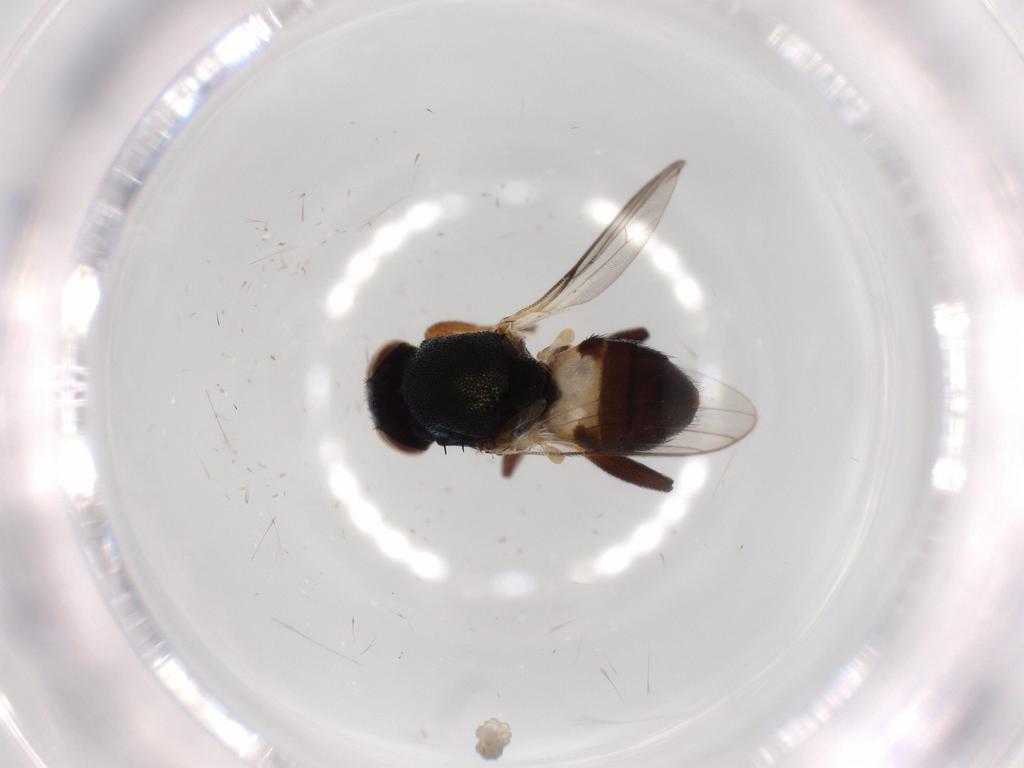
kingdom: Animalia
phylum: Arthropoda
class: Insecta
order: Diptera
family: Chloropidae
